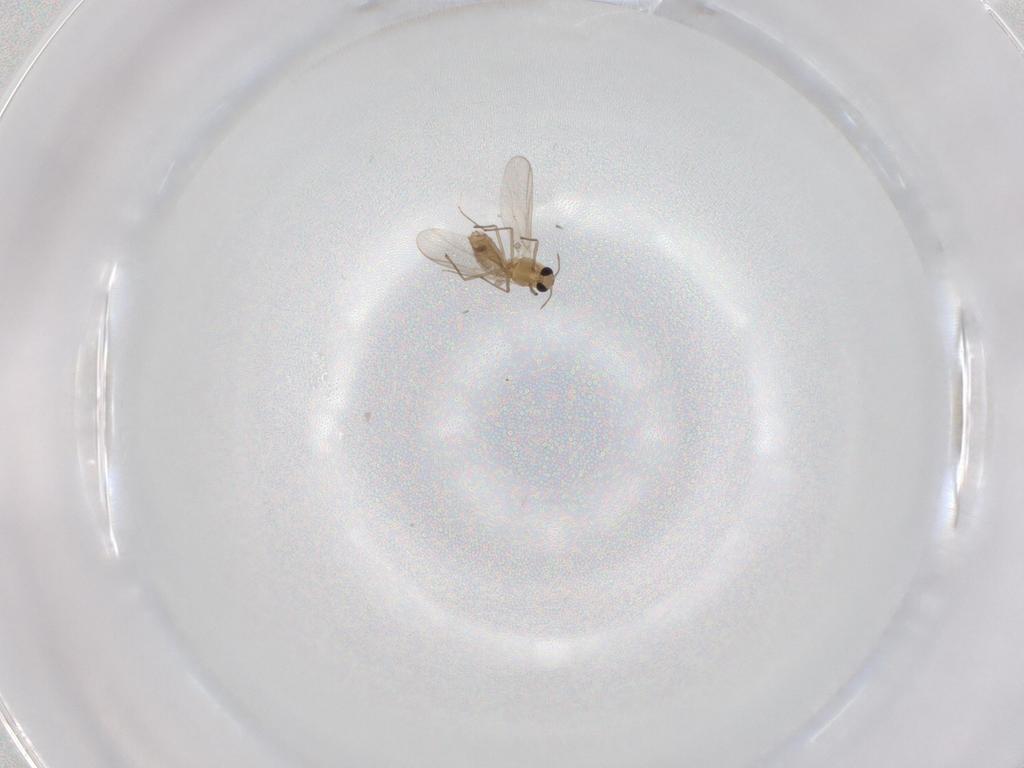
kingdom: Animalia
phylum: Arthropoda
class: Insecta
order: Diptera
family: Chironomidae
